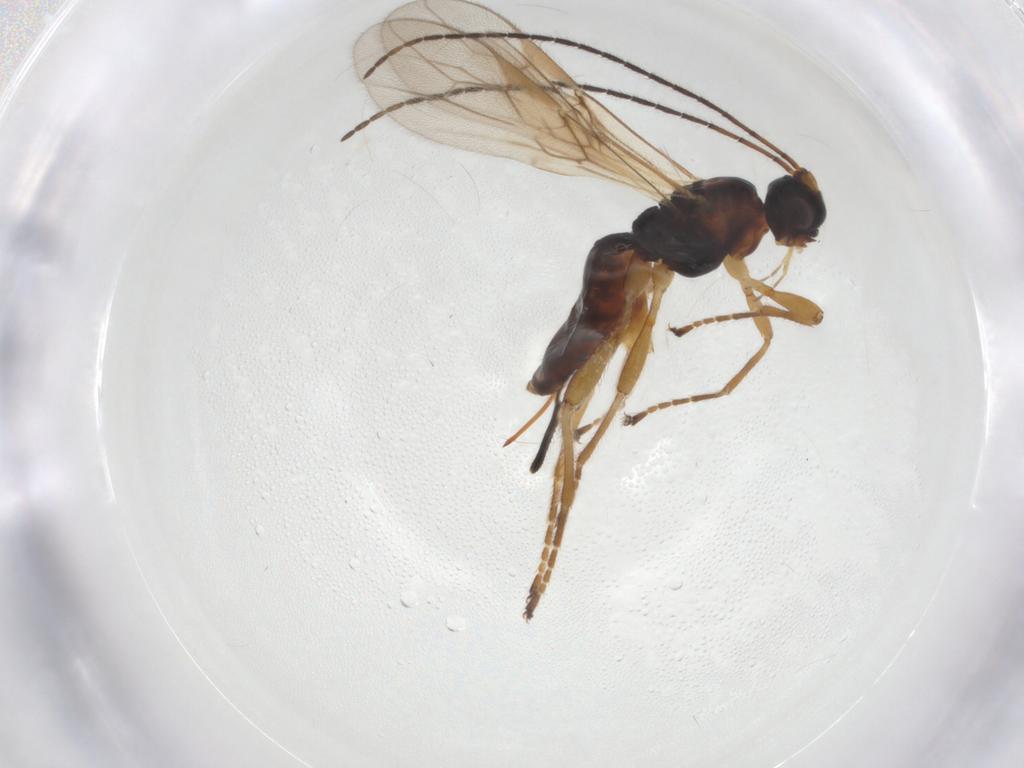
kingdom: Animalia
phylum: Arthropoda
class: Insecta
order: Hymenoptera
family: Braconidae
